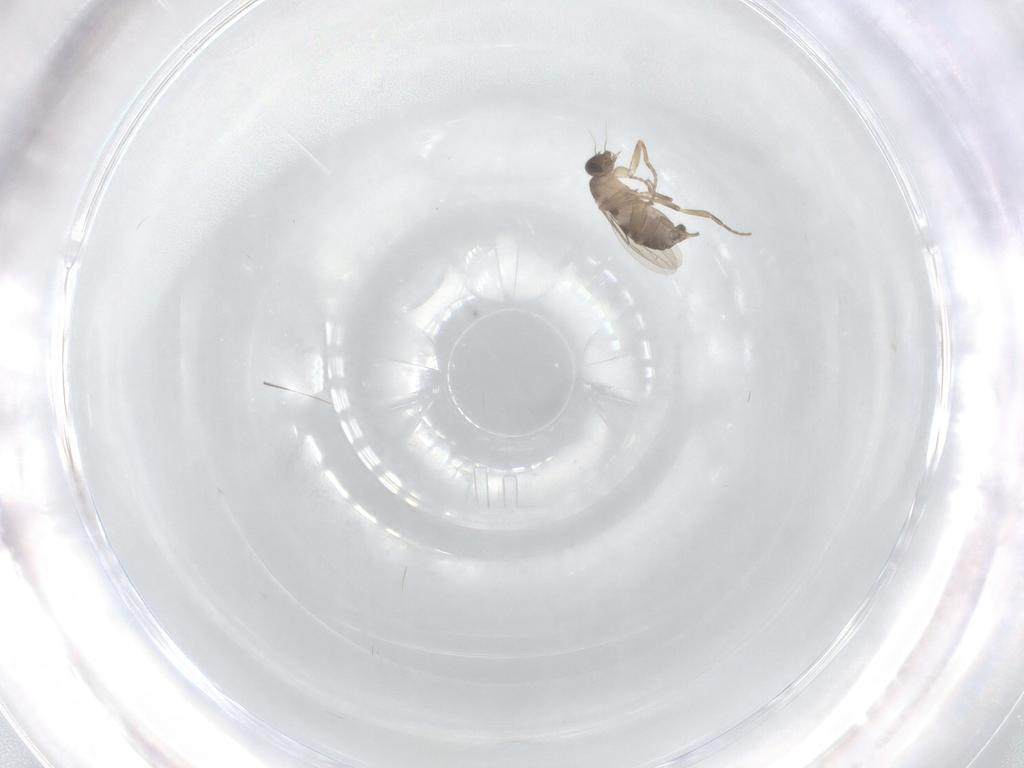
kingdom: Animalia
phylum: Arthropoda
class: Insecta
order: Diptera
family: Phoridae
